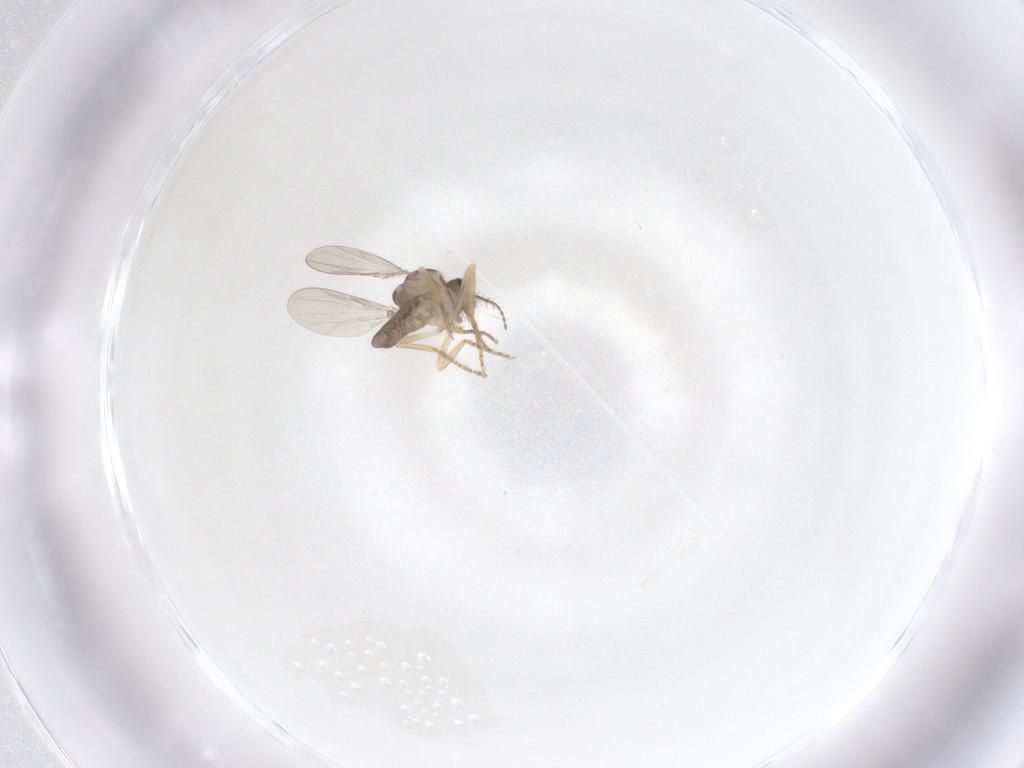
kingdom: Animalia
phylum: Arthropoda
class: Insecta
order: Diptera
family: Ceratopogonidae
